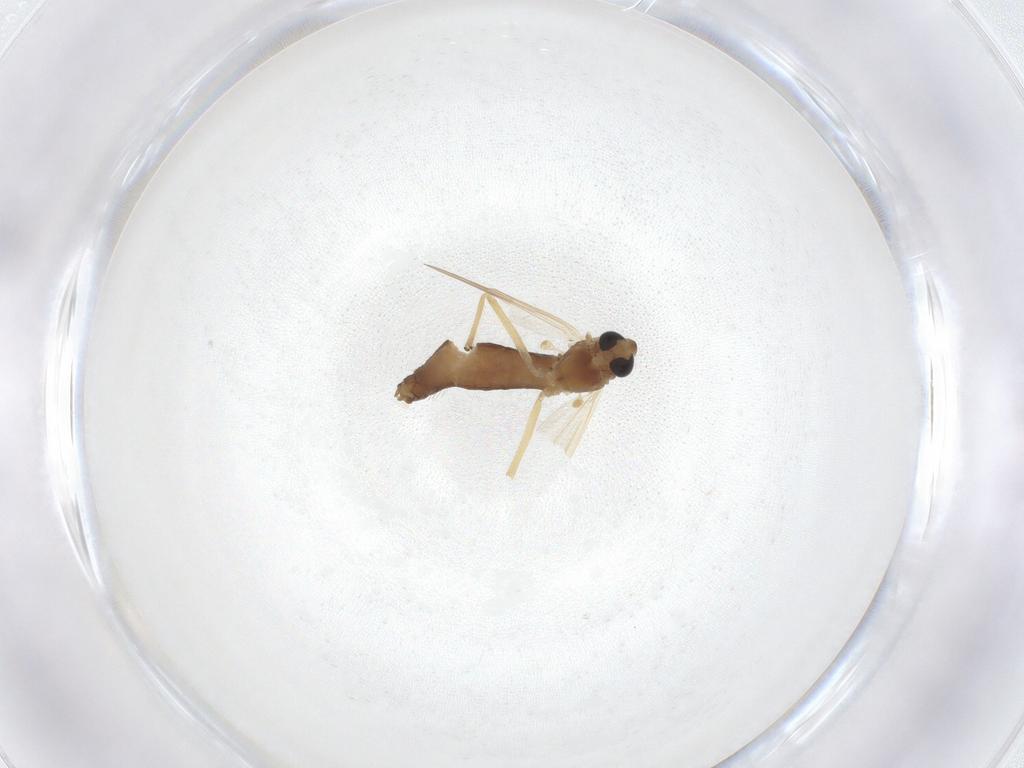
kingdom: Animalia
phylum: Arthropoda
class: Insecta
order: Diptera
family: Chironomidae
